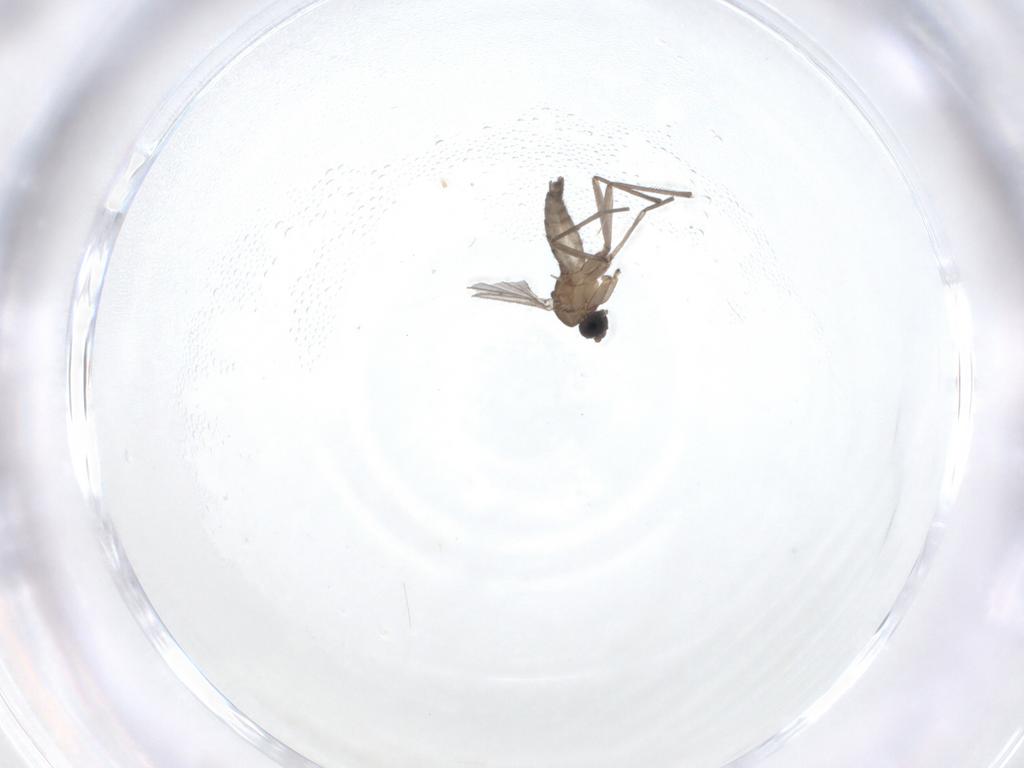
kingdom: Animalia
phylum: Arthropoda
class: Insecta
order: Diptera
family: Sciaridae
